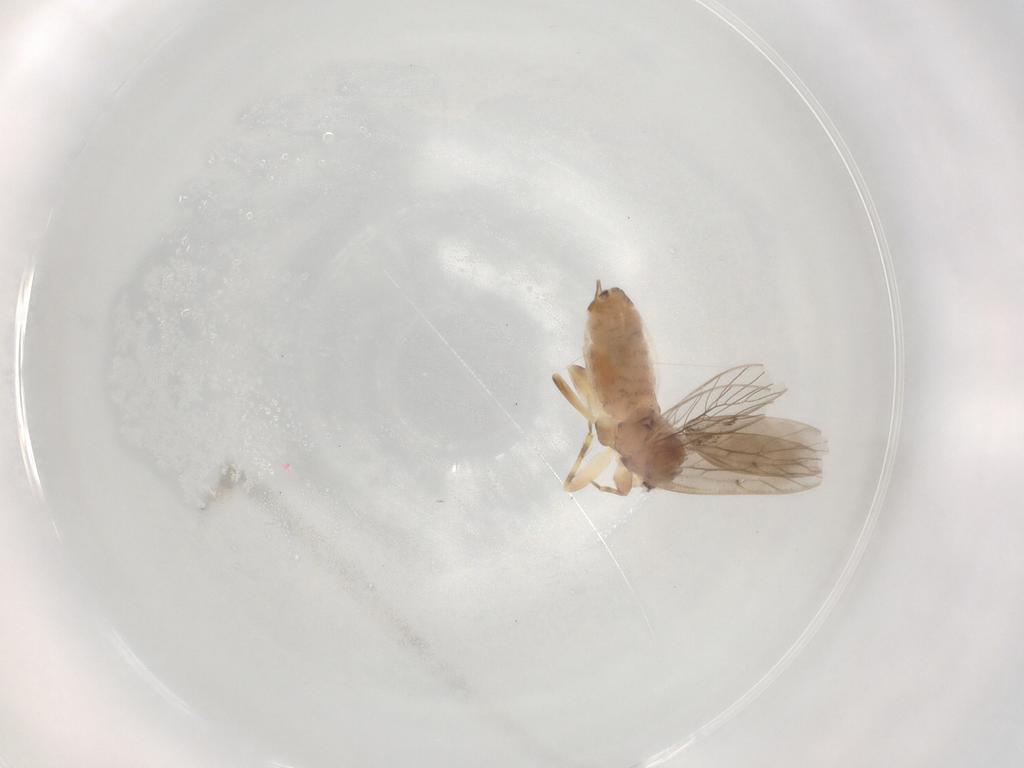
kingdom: Animalia
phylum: Arthropoda
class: Insecta
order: Psocodea
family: Lepidopsocidae
